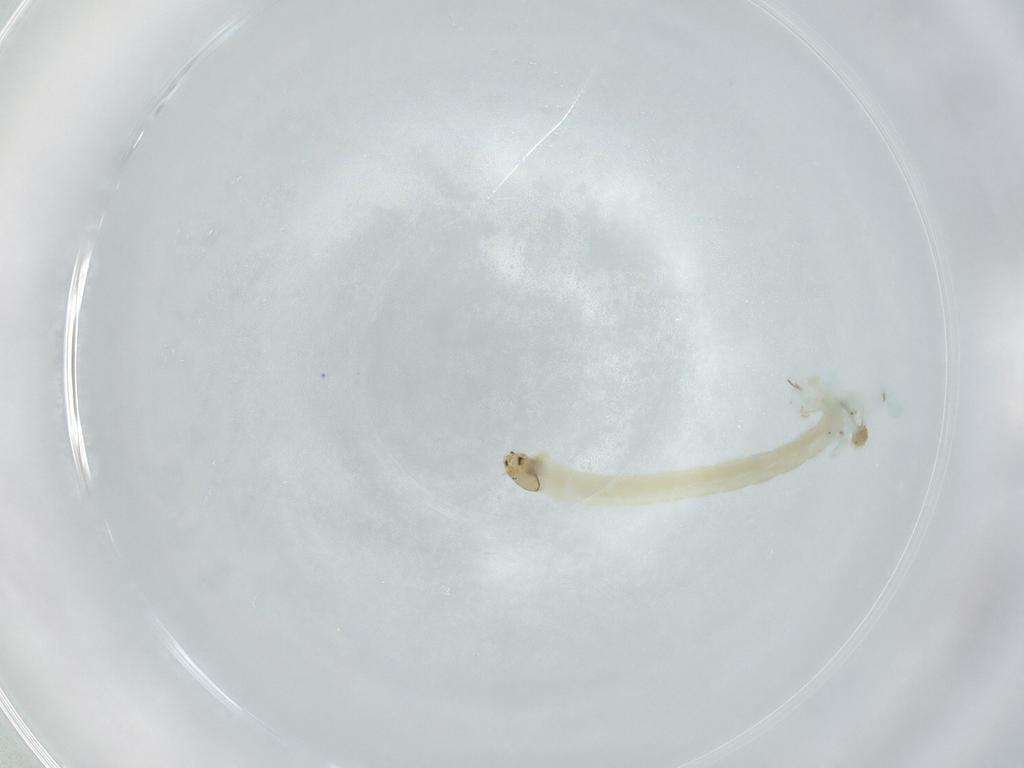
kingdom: Animalia
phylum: Arthropoda
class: Insecta
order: Diptera
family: Chironomidae
